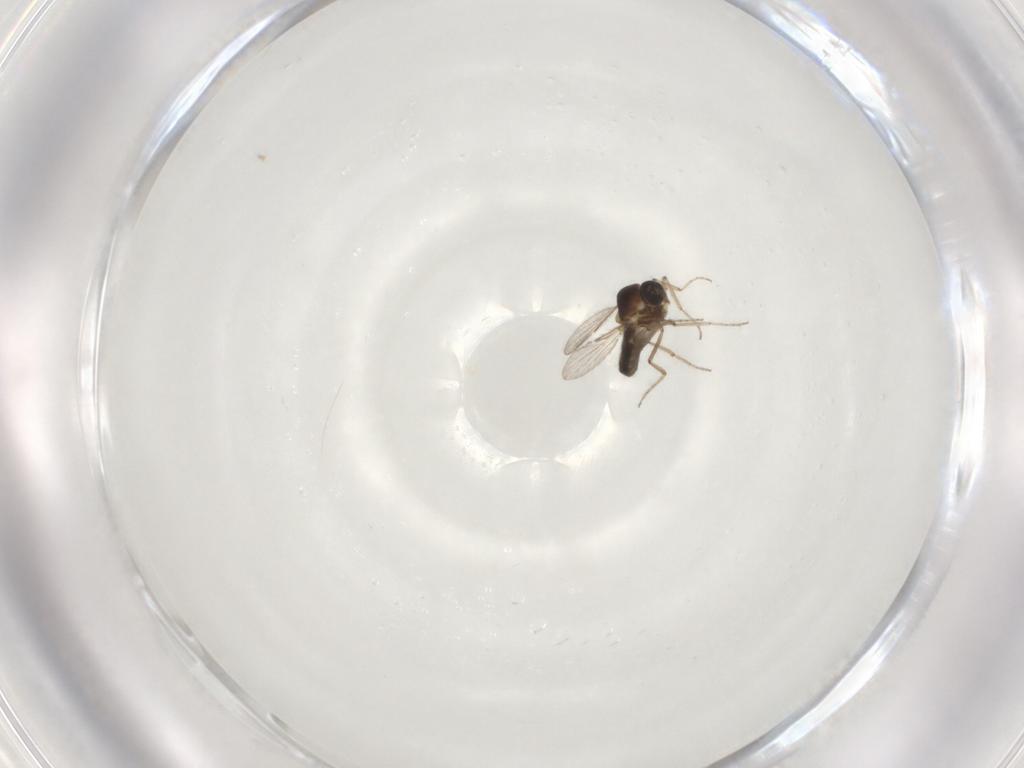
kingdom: Animalia
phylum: Arthropoda
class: Insecta
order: Diptera
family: Ceratopogonidae
